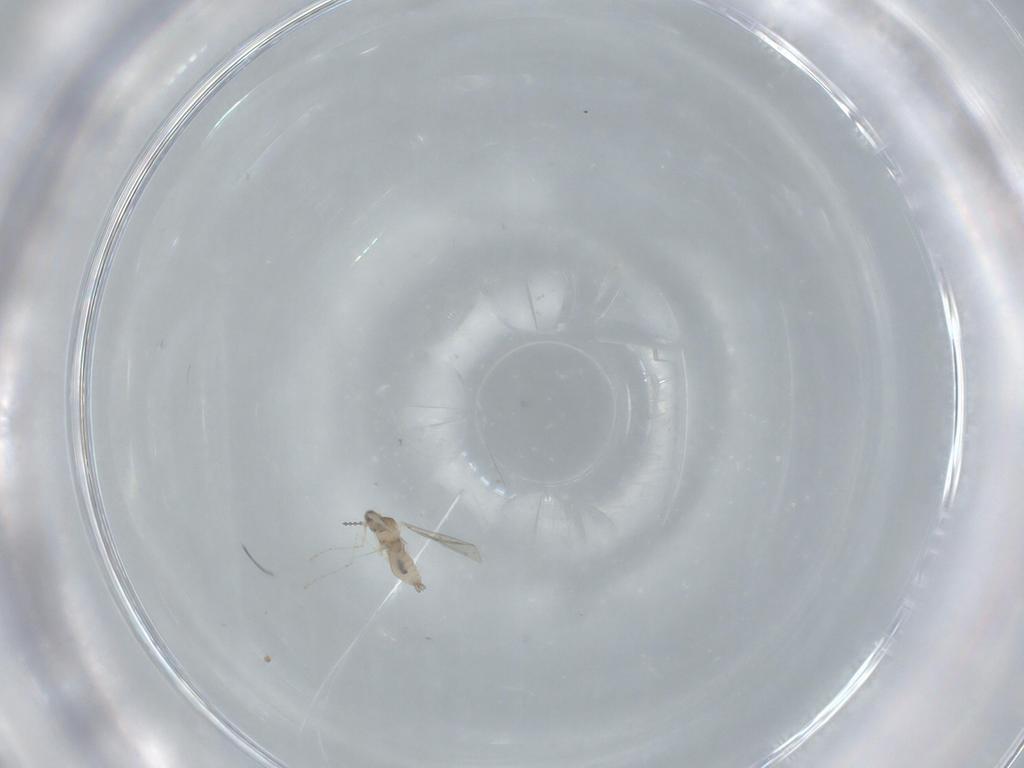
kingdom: Animalia
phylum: Arthropoda
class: Insecta
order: Diptera
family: Cecidomyiidae
